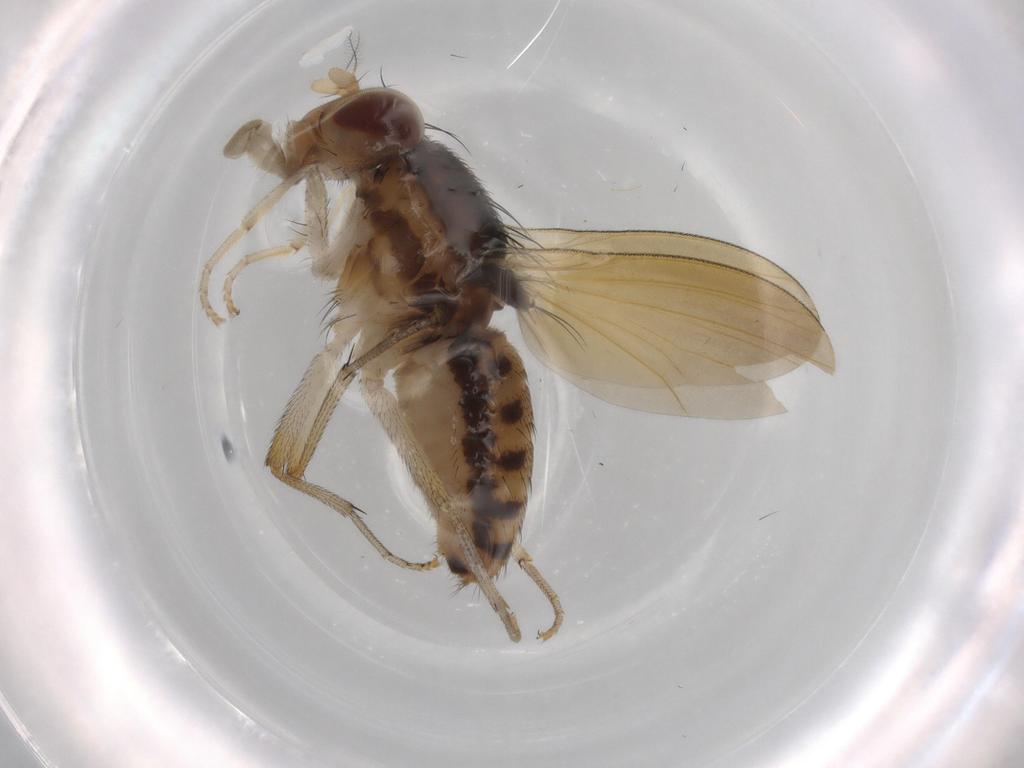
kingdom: Animalia
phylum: Arthropoda
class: Insecta
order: Diptera
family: Cecidomyiidae
